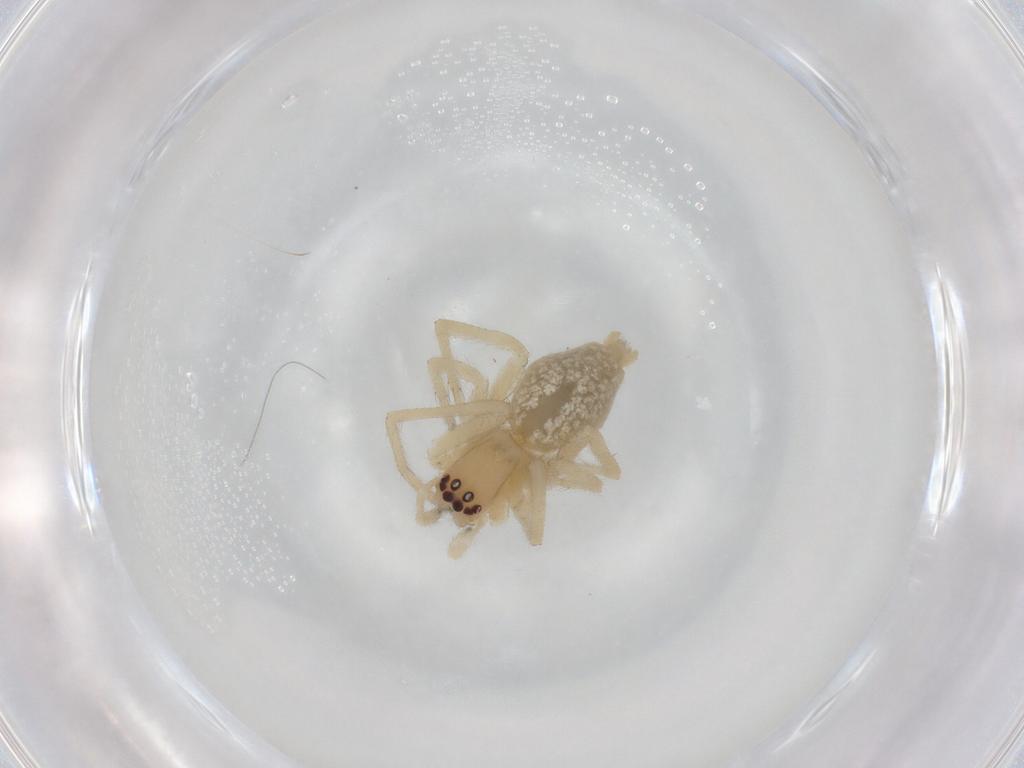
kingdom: Animalia
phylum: Arthropoda
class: Arachnida
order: Araneae
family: Cheiracanthiidae
